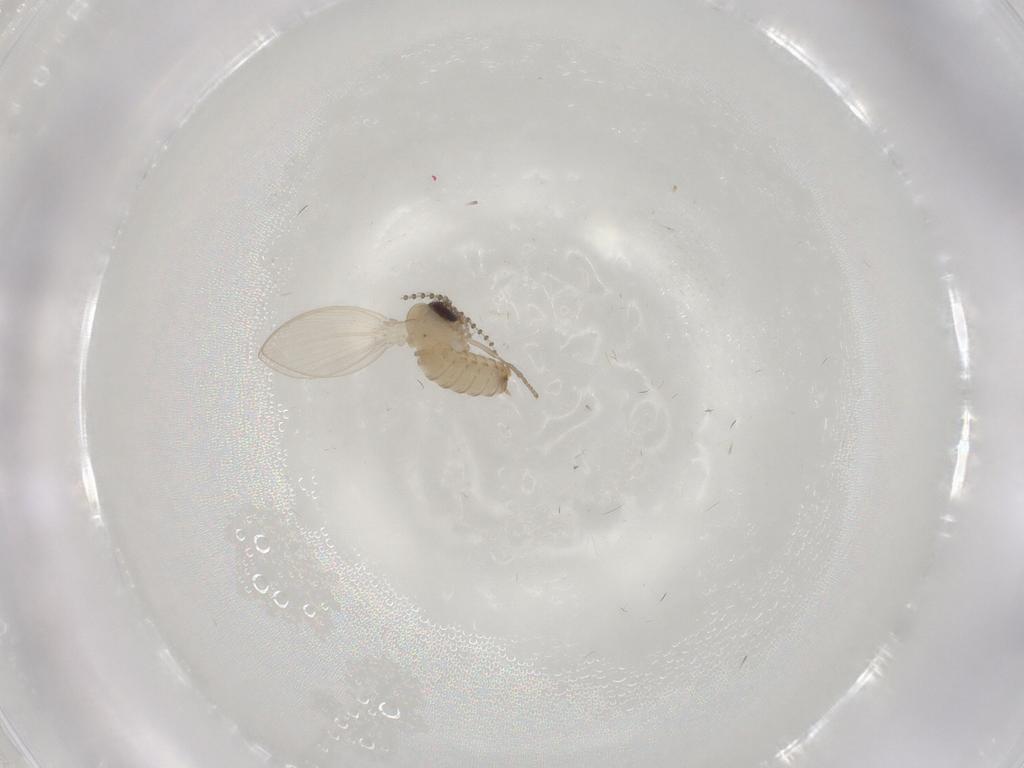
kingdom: Animalia
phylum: Arthropoda
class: Insecta
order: Diptera
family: Psychodidae
